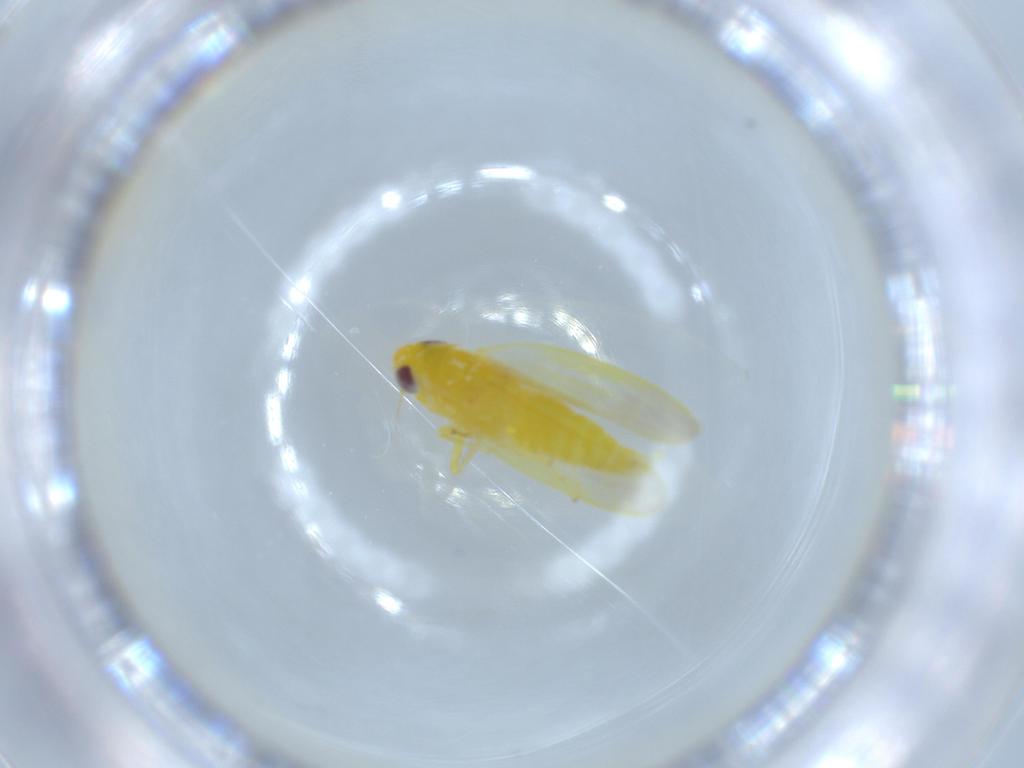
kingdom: Animalia
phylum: Arthropoda
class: Insecta
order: Hemiptera
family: Cicadellidae
